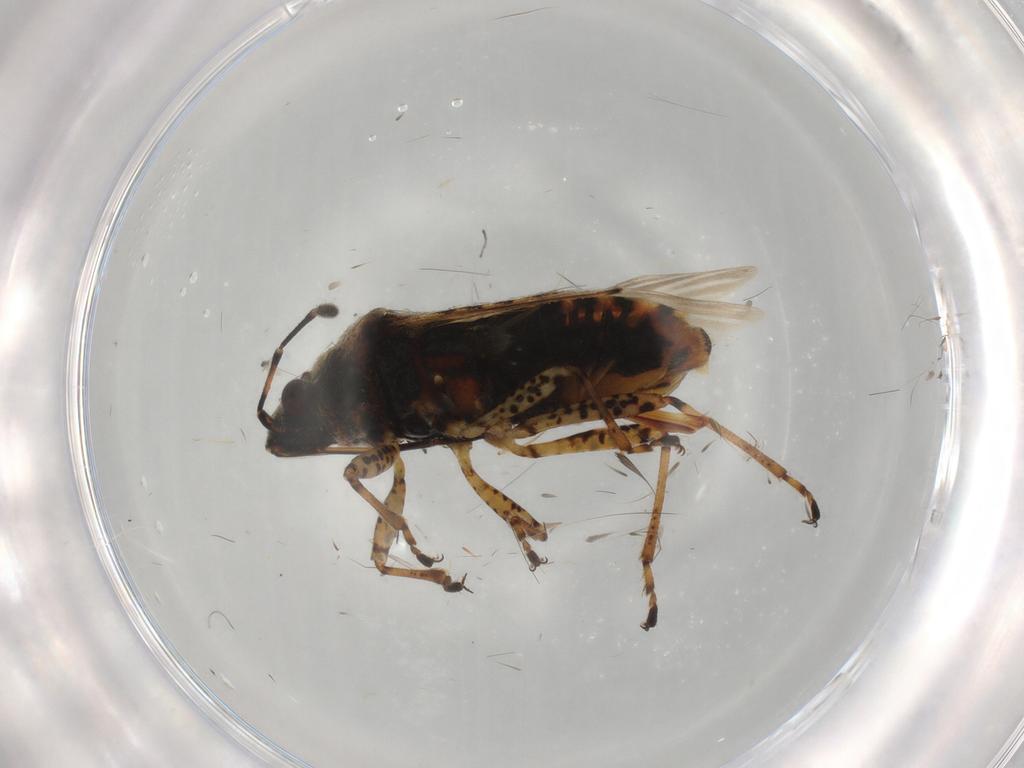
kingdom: Animalia
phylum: Arthropoda
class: Insecta
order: Hemiptera
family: Lygaeidae
